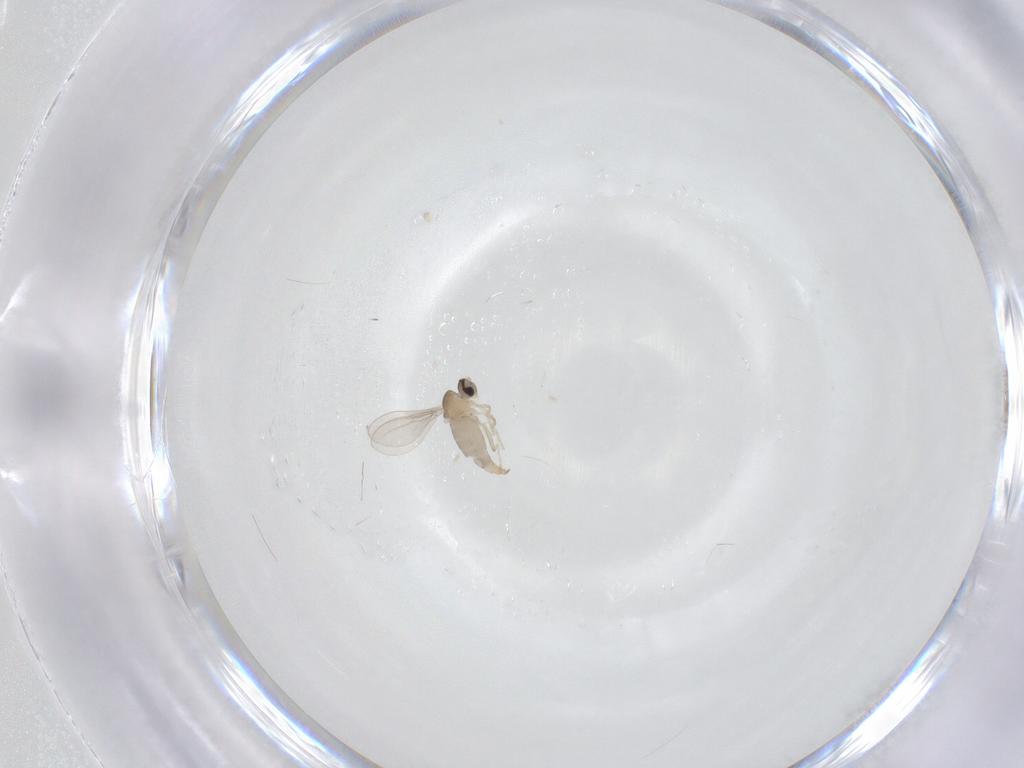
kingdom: Animalia
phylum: Arthropoda
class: Insecta
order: Diptera
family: Cecidomyiidae
